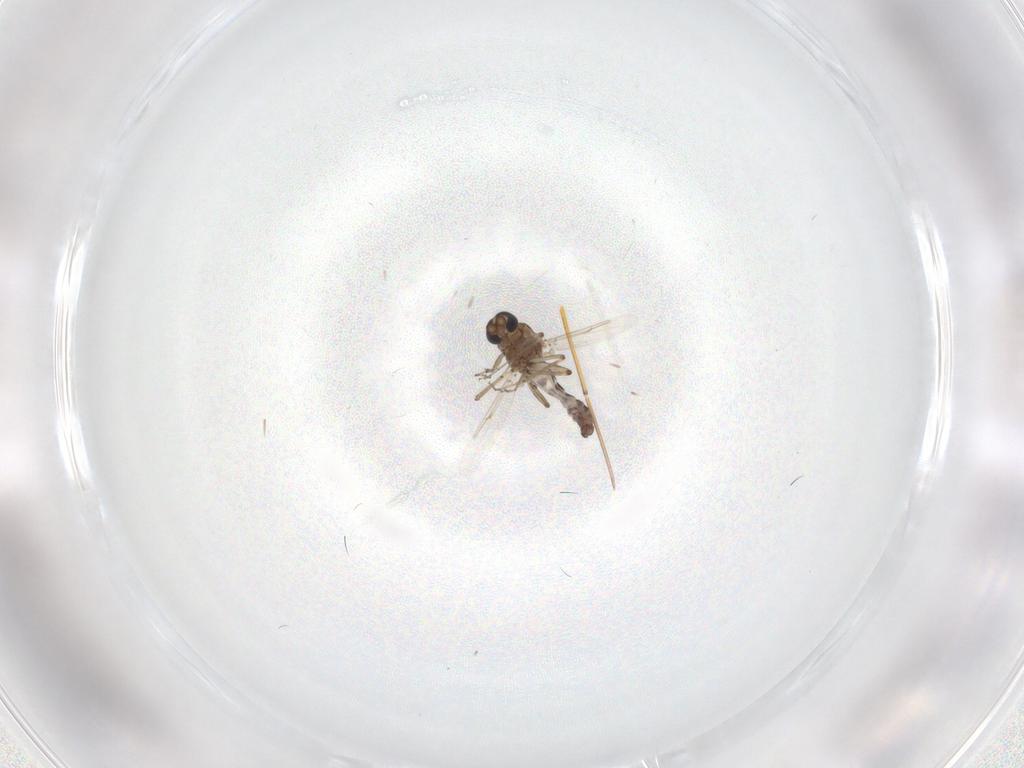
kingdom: Animalia
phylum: Arthropoda
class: Insecta
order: Diptera
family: Ceratopogonidae
